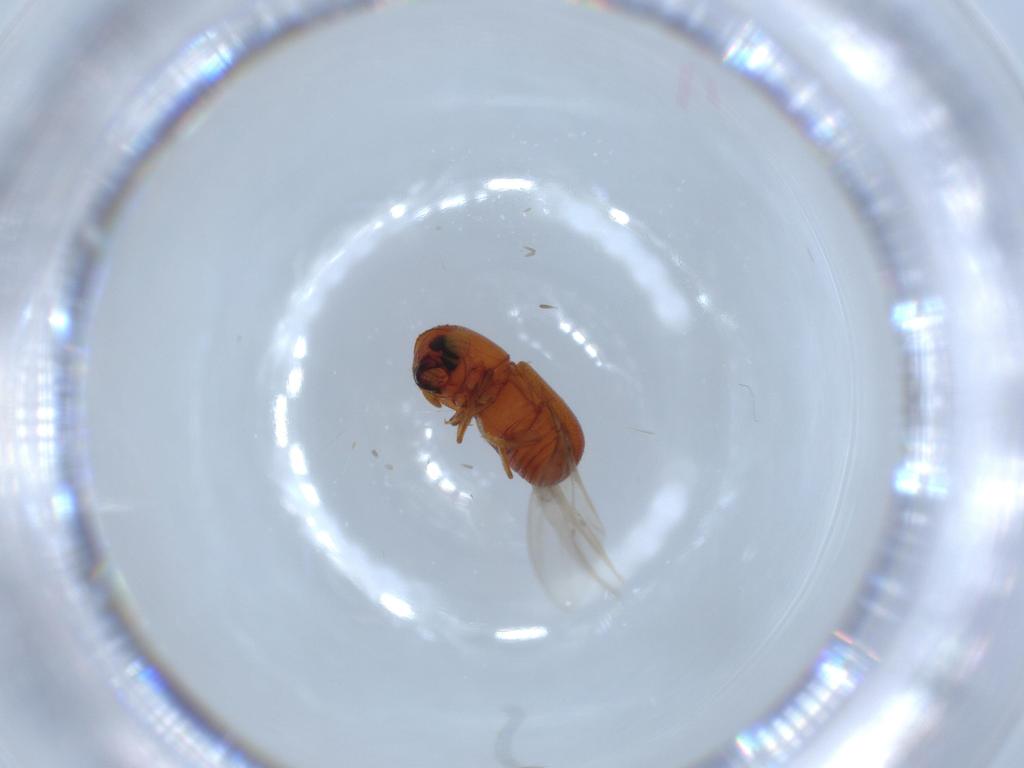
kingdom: Animalia
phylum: Arthropoda
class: Insecta
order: Coleoptera
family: Curculionidae
